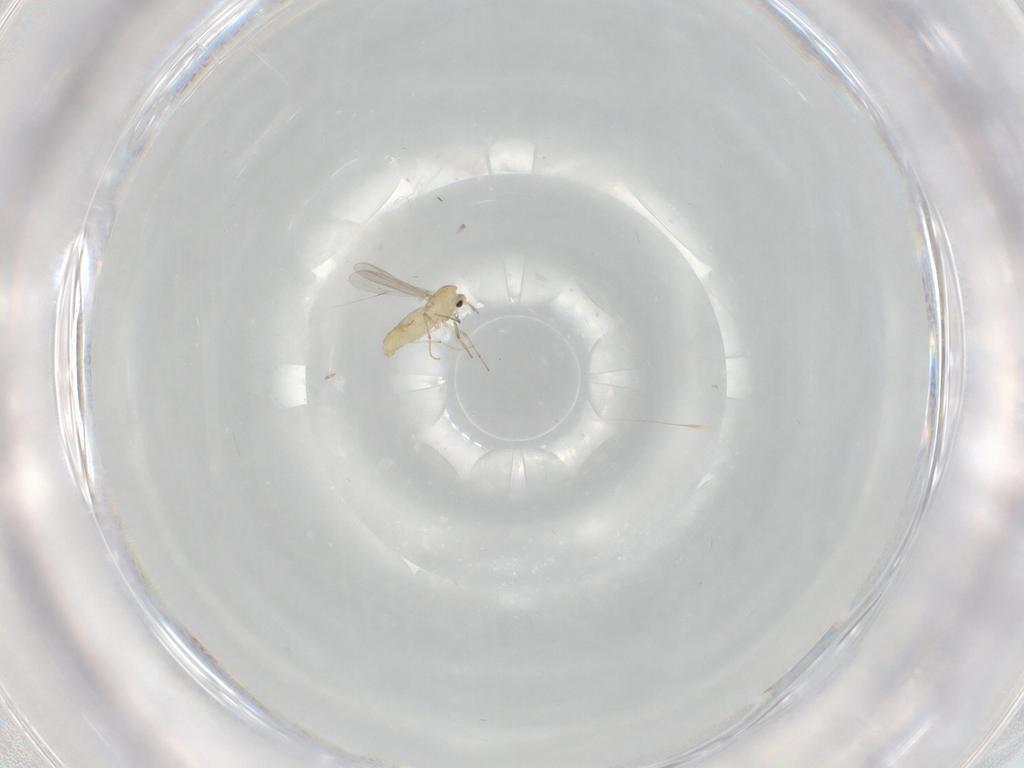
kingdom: Animalia
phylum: Arthropoda
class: Insecta
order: Diptera
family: Chironomidae
